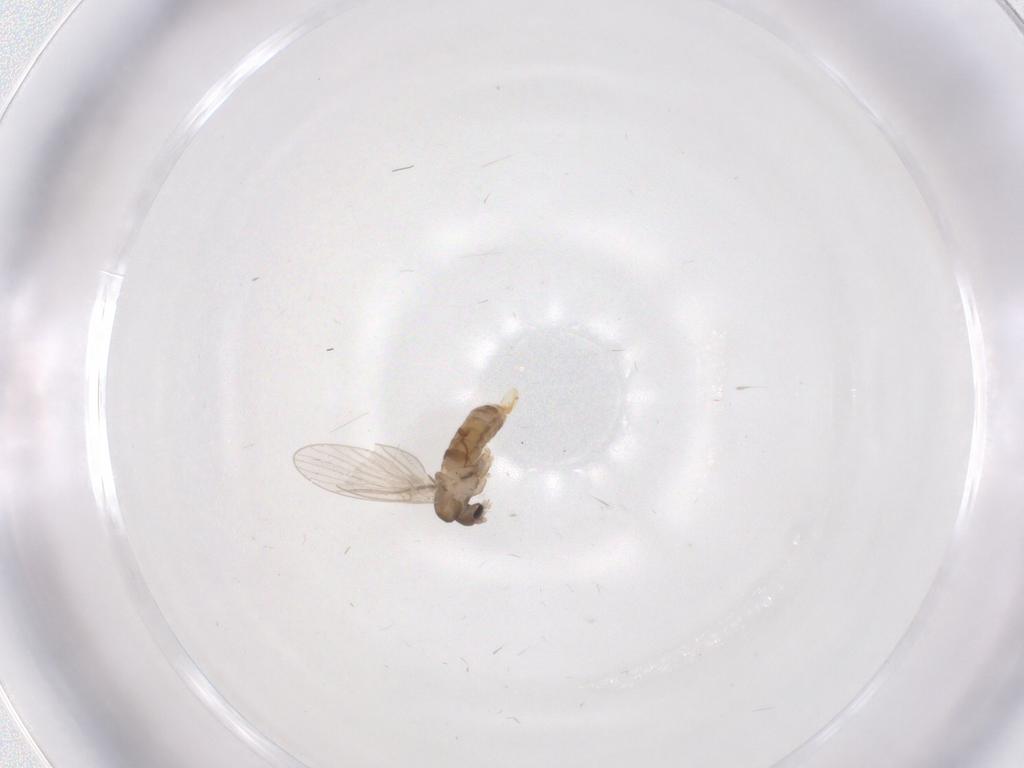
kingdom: Animalia
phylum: Arthropoda
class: Insecta
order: Diptera
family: Psychodidae
